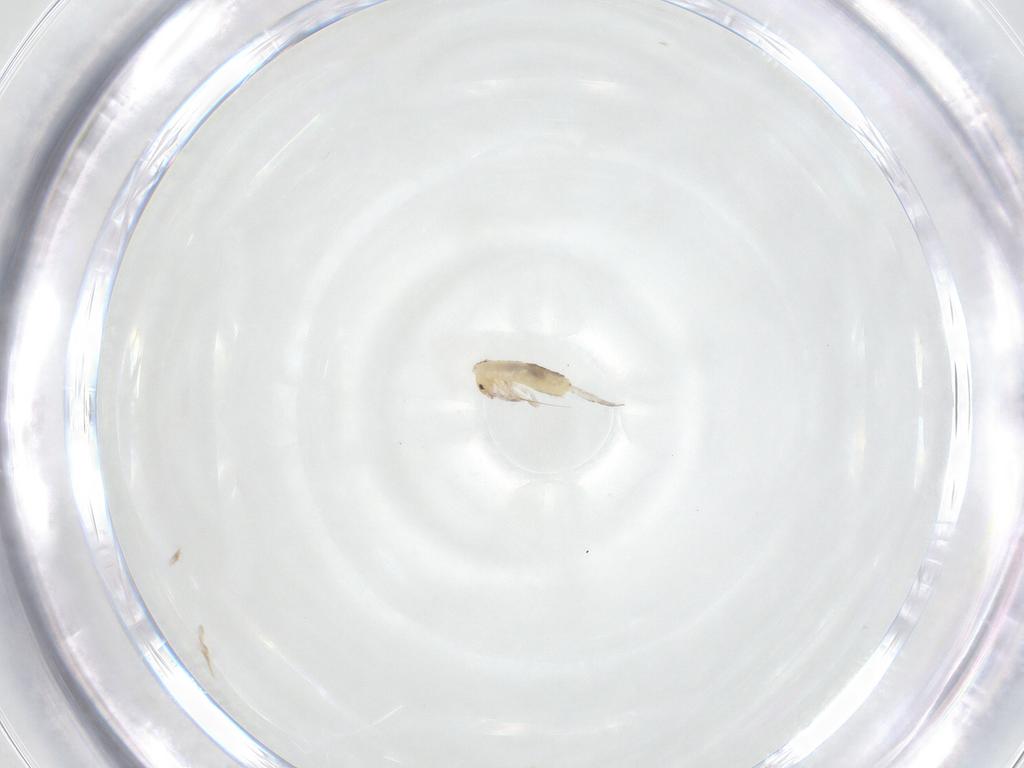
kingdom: Animalia
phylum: Arthropoda
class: Collembola
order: Entomobryomorpha
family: Entomobryidae
